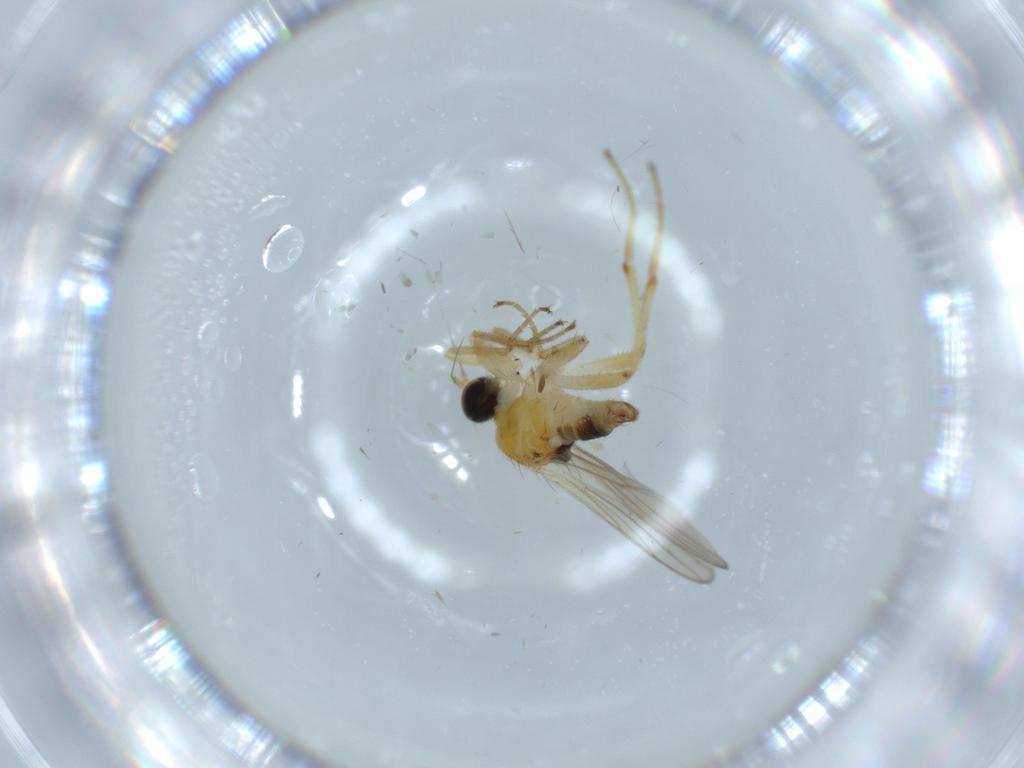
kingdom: Animalia
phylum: Arthropoda
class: Insecta
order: Diptera
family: Hybotidae
